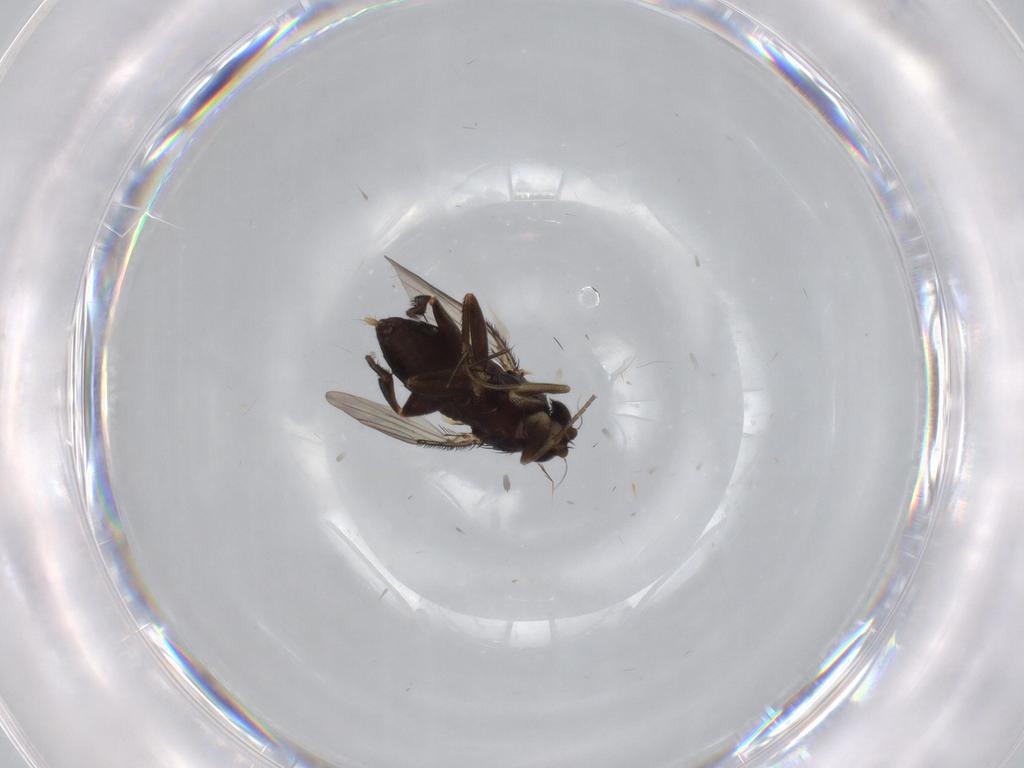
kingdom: Animalia
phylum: Arthropoda
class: Insecta
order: Diptera
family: Phoridae
